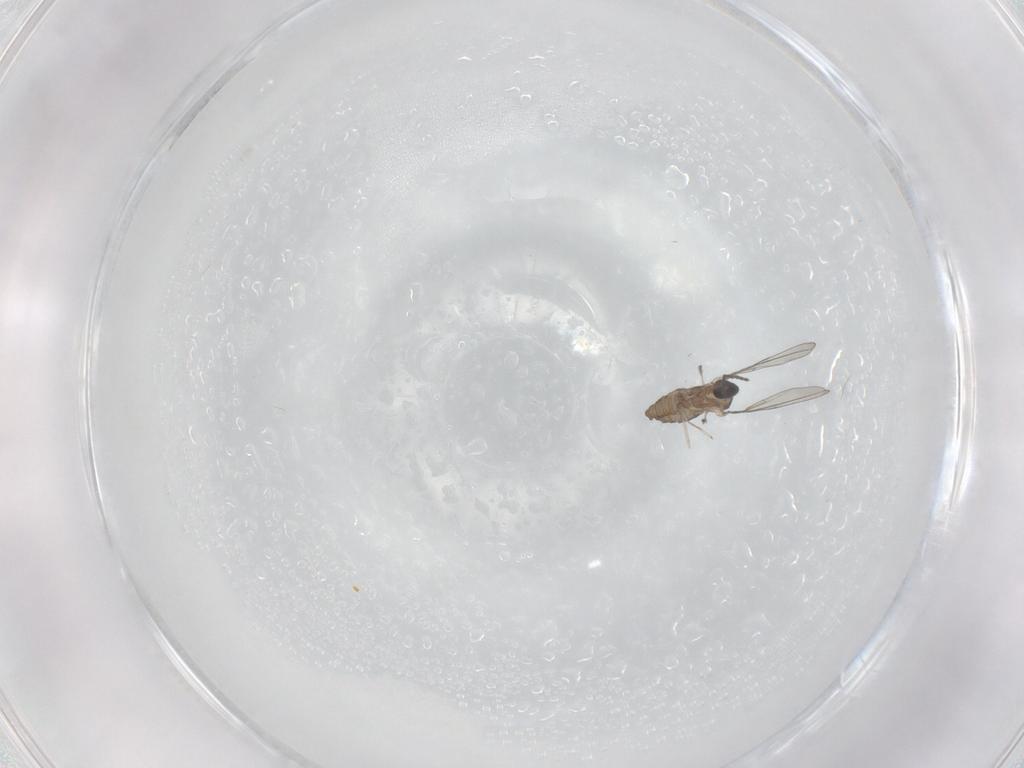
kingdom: Animalia
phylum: Arthropoda
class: Insecta
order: Diptera
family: Cecidomyiidae
